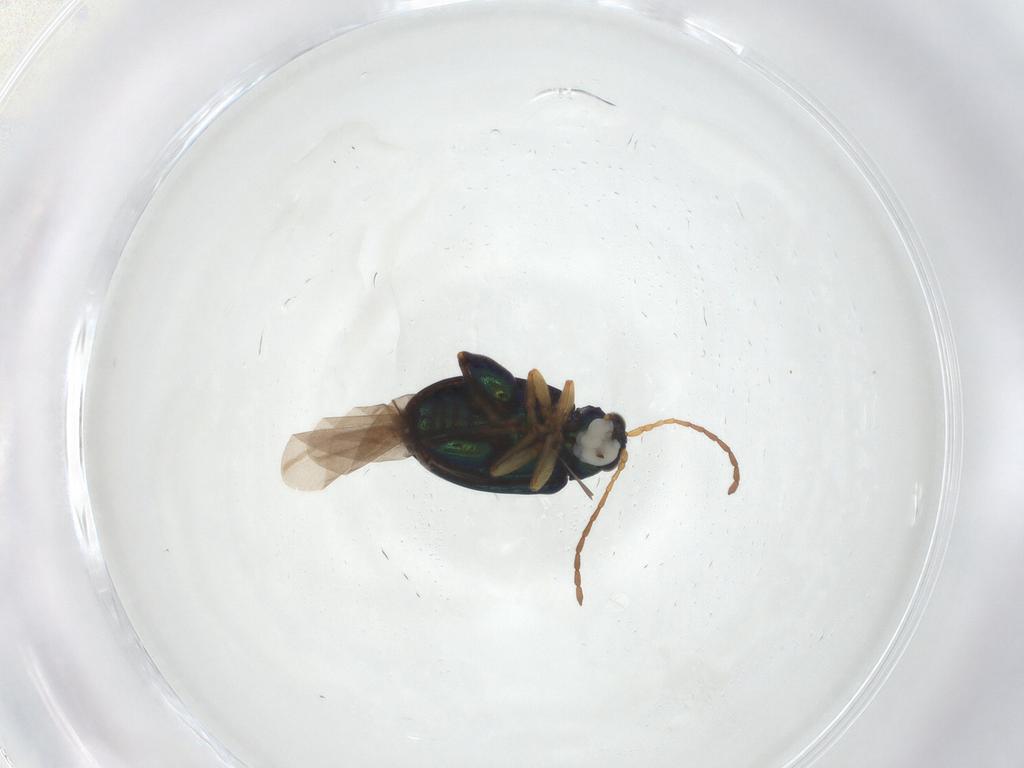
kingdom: Animalia
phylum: Arthropoda
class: Insecta
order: Coleoptera
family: Chrysomelidae
